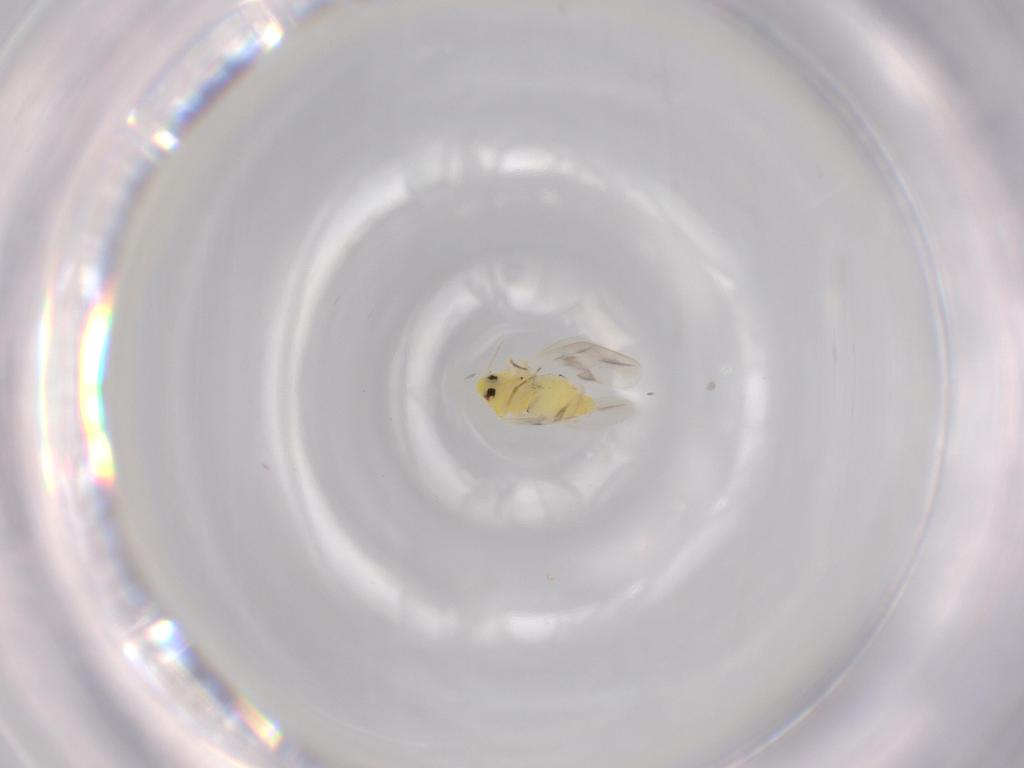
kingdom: Animalia
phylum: Arthropoda
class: Insecta
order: Hemiptera
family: Aleyrodidae
